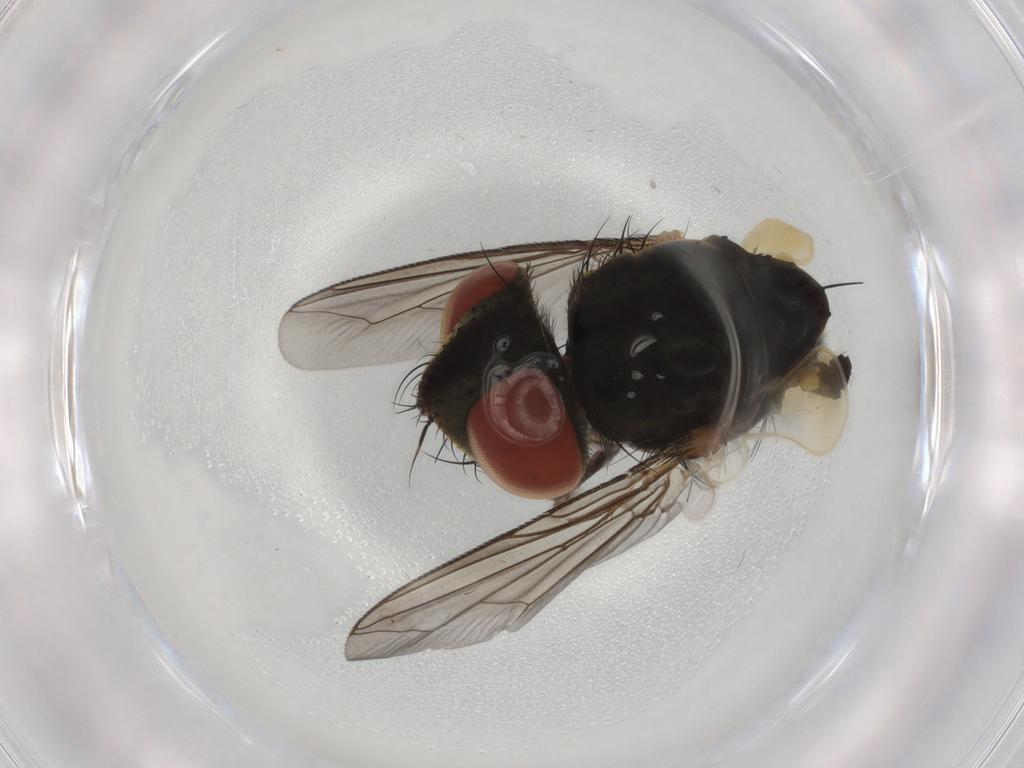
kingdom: Animalia
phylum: Arthropoda
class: Insecta
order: Diptera
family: Sarcophagidae
